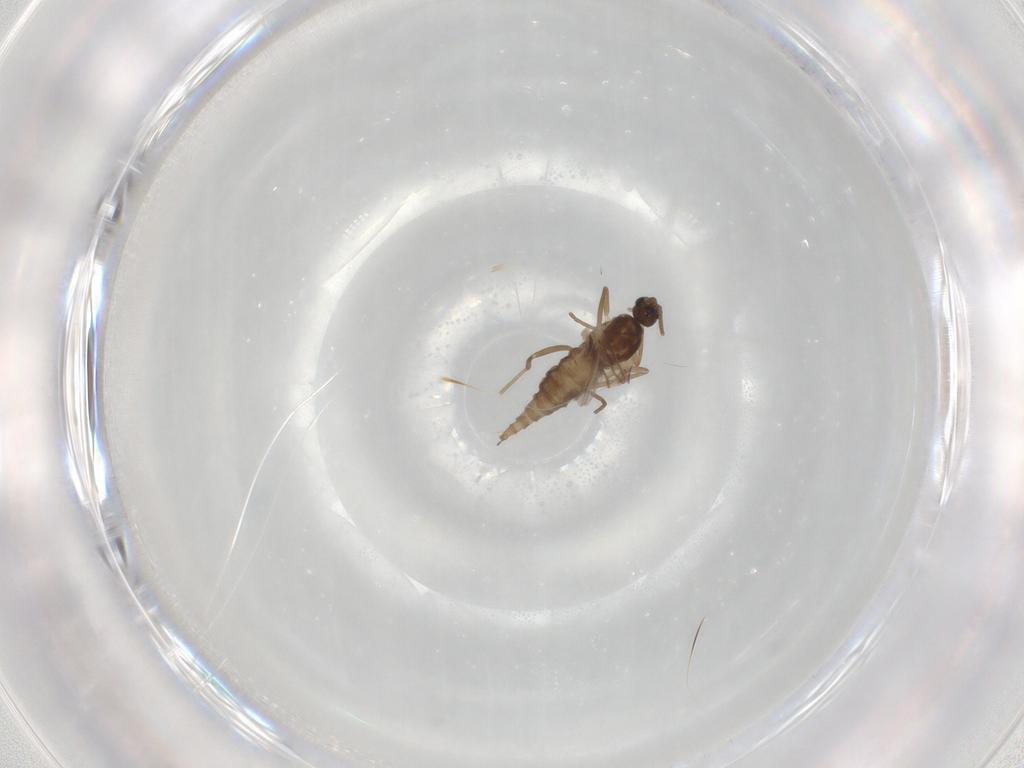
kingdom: Animalia
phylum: Arthropoda
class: Insecta
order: Diptera
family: Cecidomyiidae
